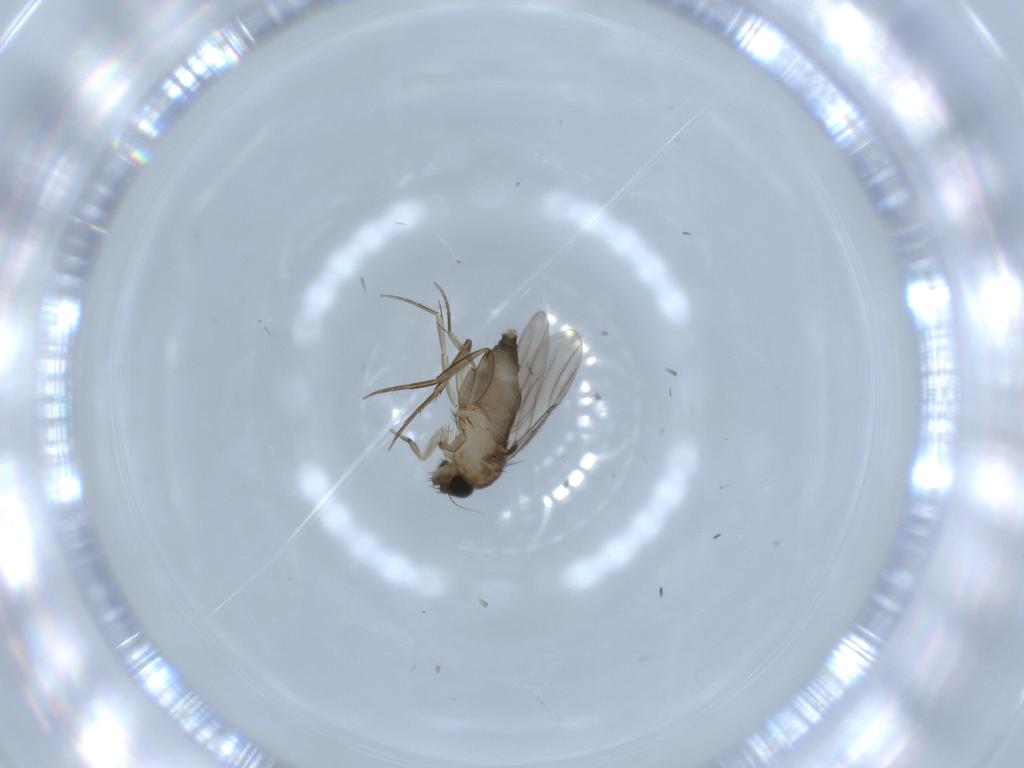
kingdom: Animalia
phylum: Arthropoda
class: Insecta
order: Diptera
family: Phoridae
